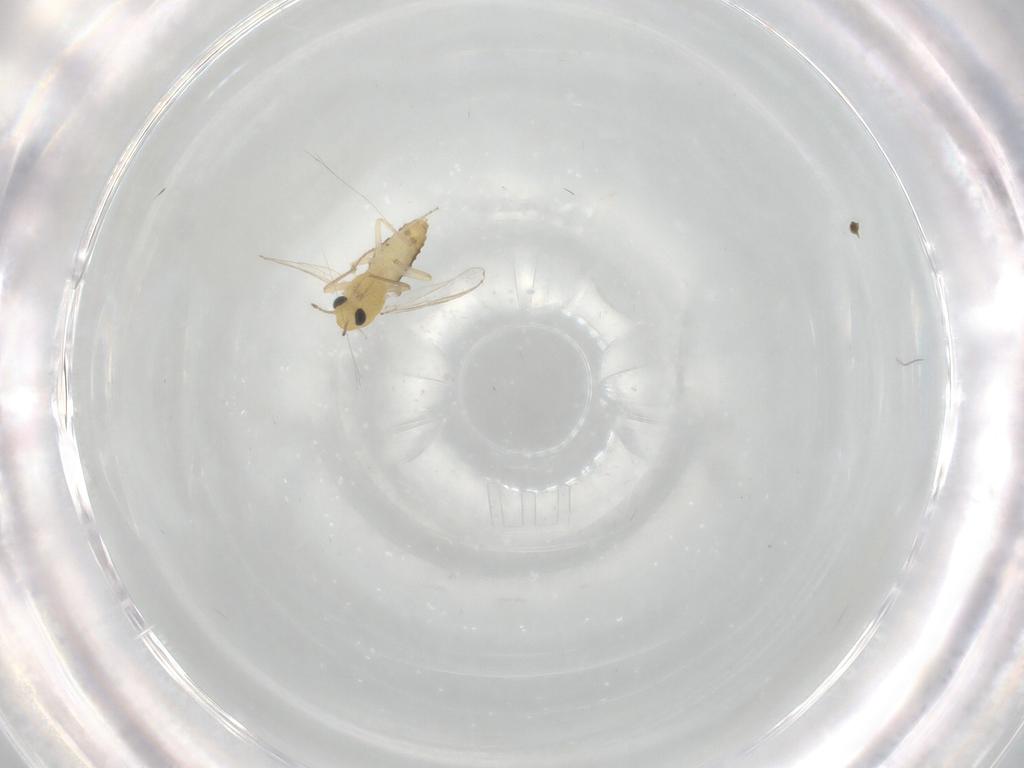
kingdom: Animalia
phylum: Arthropoda
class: Insecta
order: Diptera
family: Chironomidae
